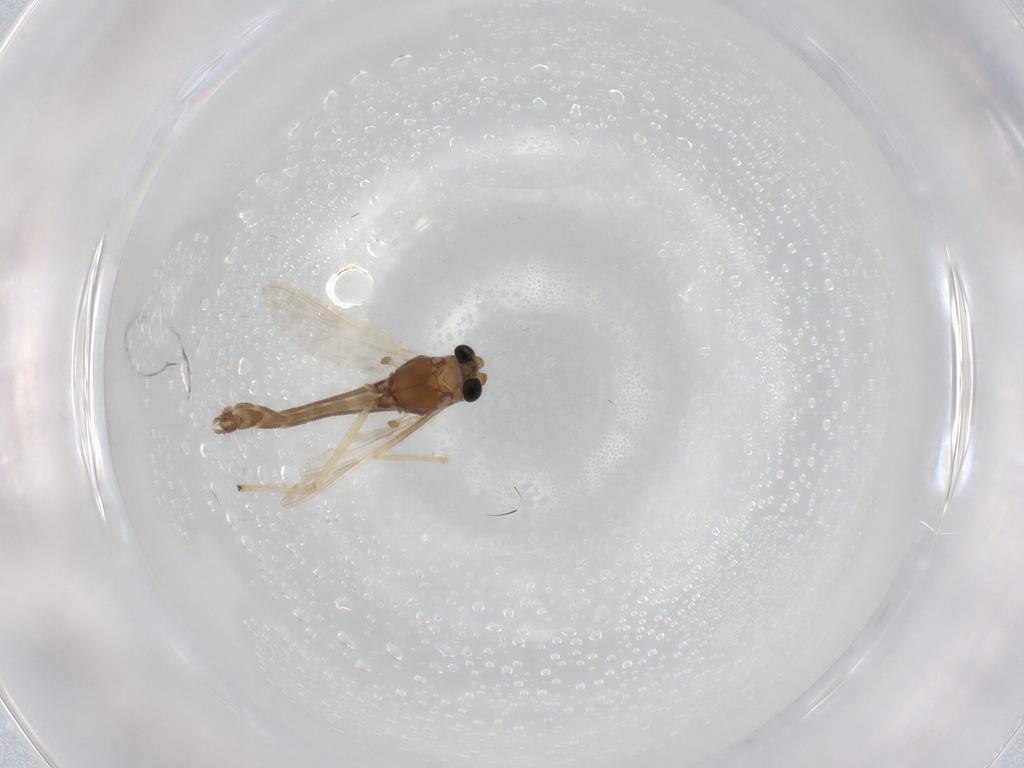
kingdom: Animalia
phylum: Arthropoda
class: Insecta
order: Diptera
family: Chironomidae
